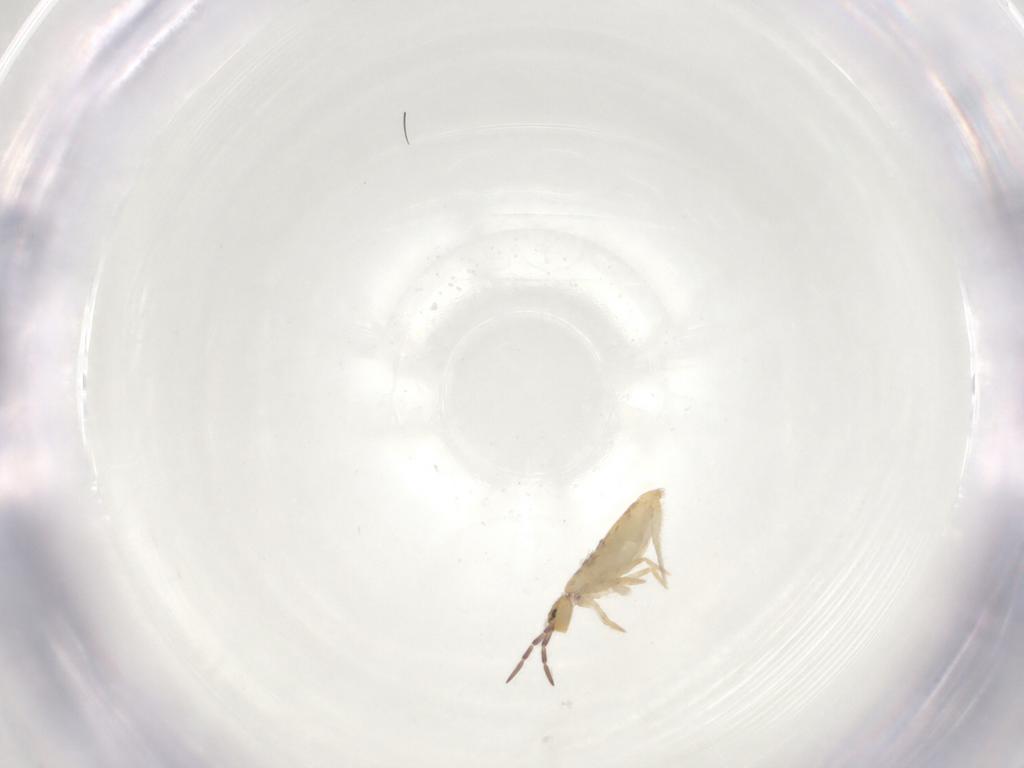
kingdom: Animalia
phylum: Arthropoda
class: Collembola
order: Entomobryomorpha
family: Entomobryidae
